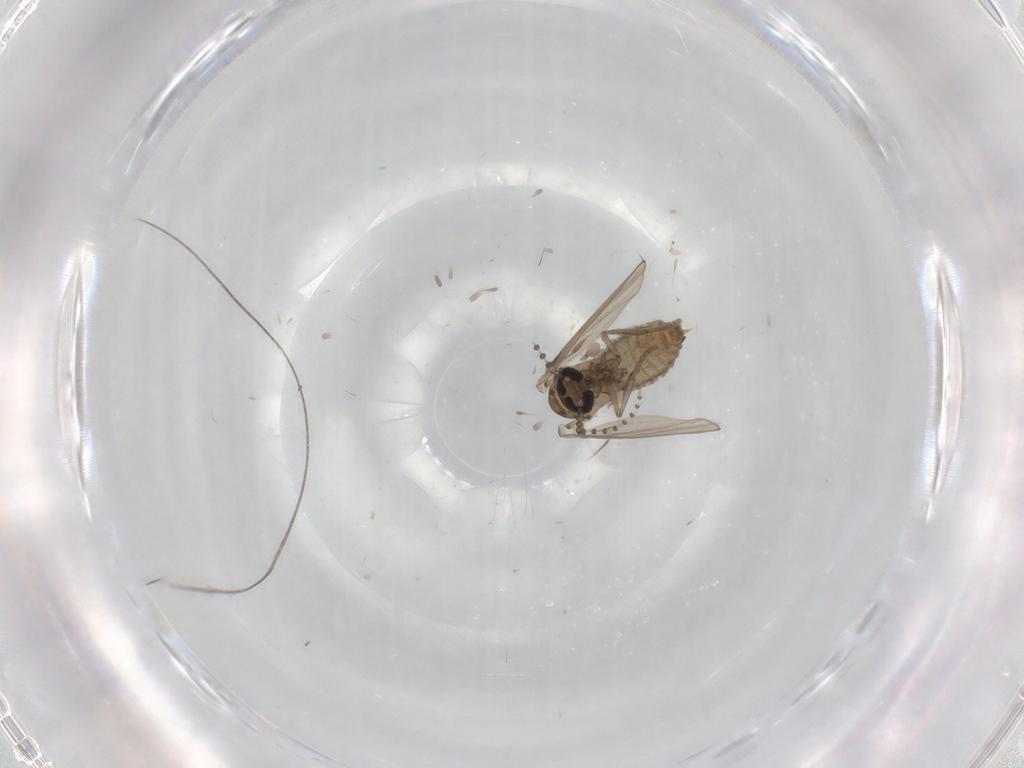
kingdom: Animalia
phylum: Arthropoda
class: Insecta
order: Diptera
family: Psychodidae
